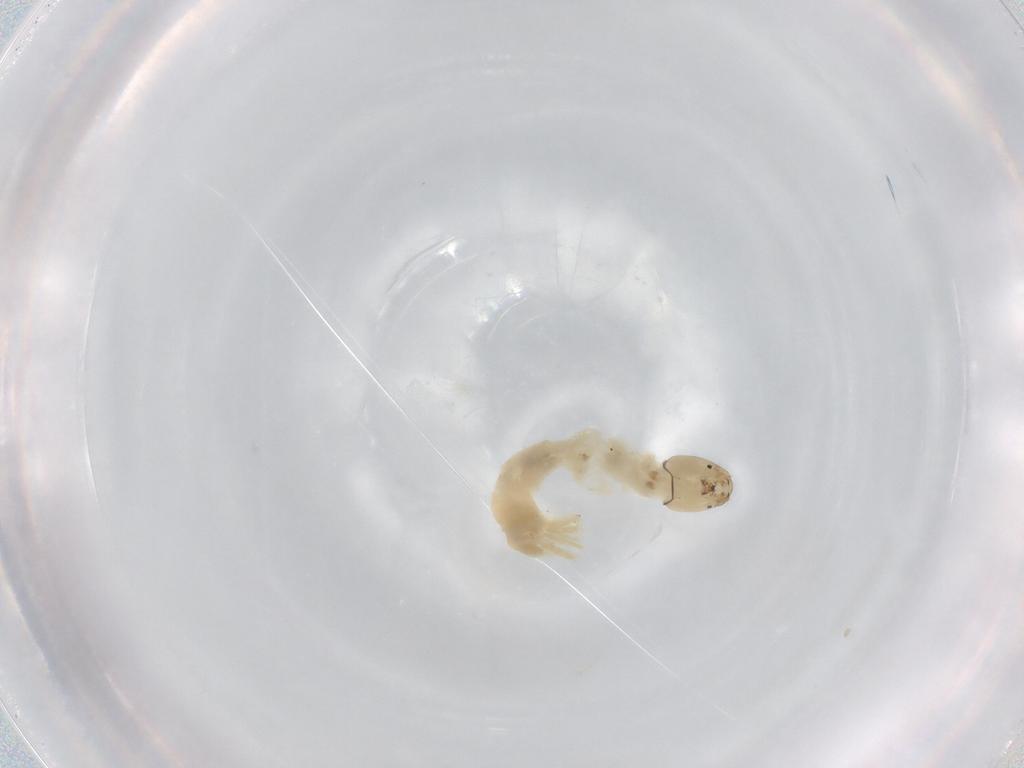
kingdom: Animalia
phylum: Arthropoda
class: Insecta
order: Diptera
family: Chironomidae
